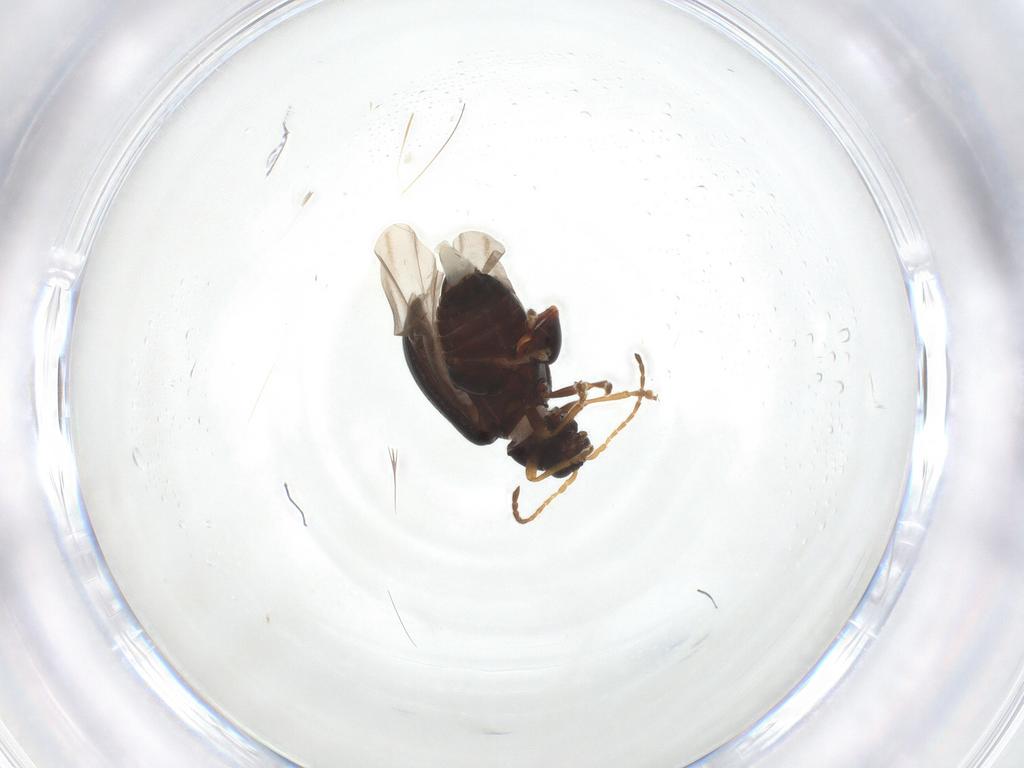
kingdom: Animalia
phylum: Arthropoda
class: Insecta
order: Coleoptera
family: Chrysomelidae
